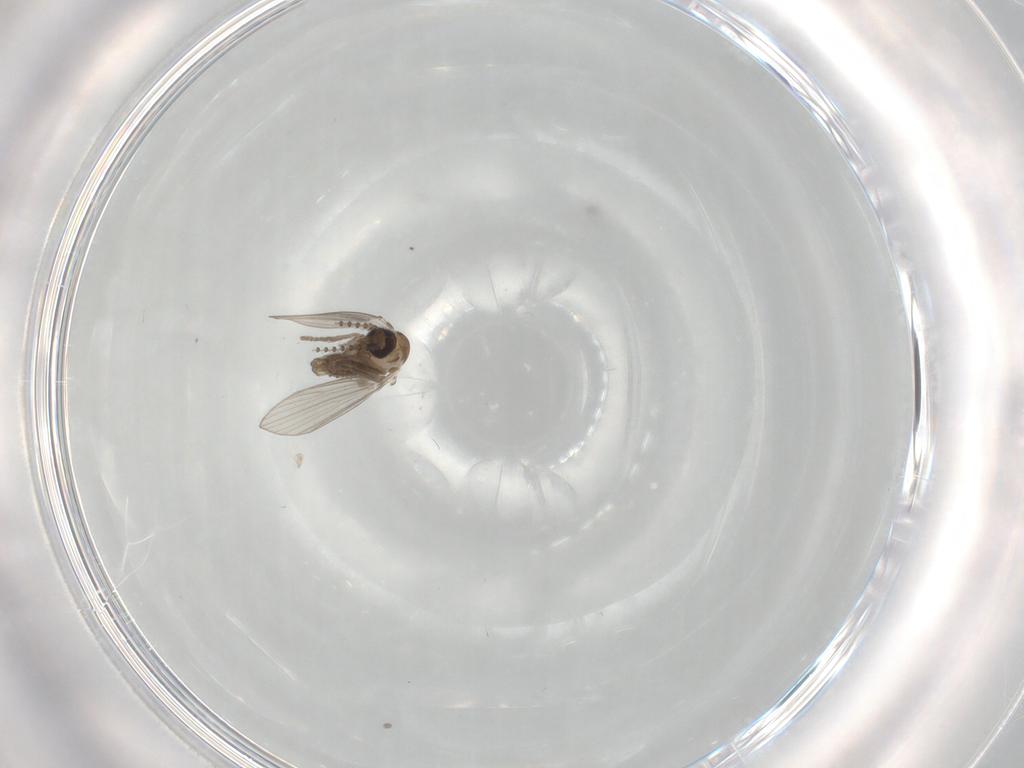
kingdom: Animalia
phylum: Arthropoda
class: Insecta
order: Diptera
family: Psychodidae
